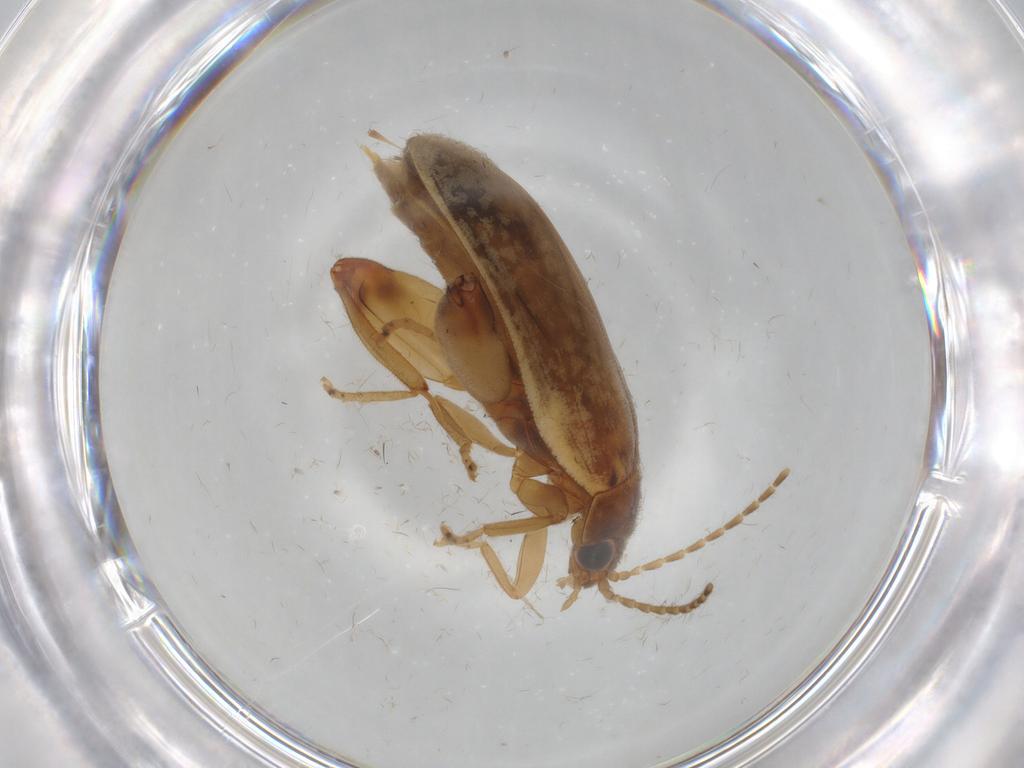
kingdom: Animalia
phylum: Arthropoda
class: Insecta
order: Coleoptera
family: Scirtidae
